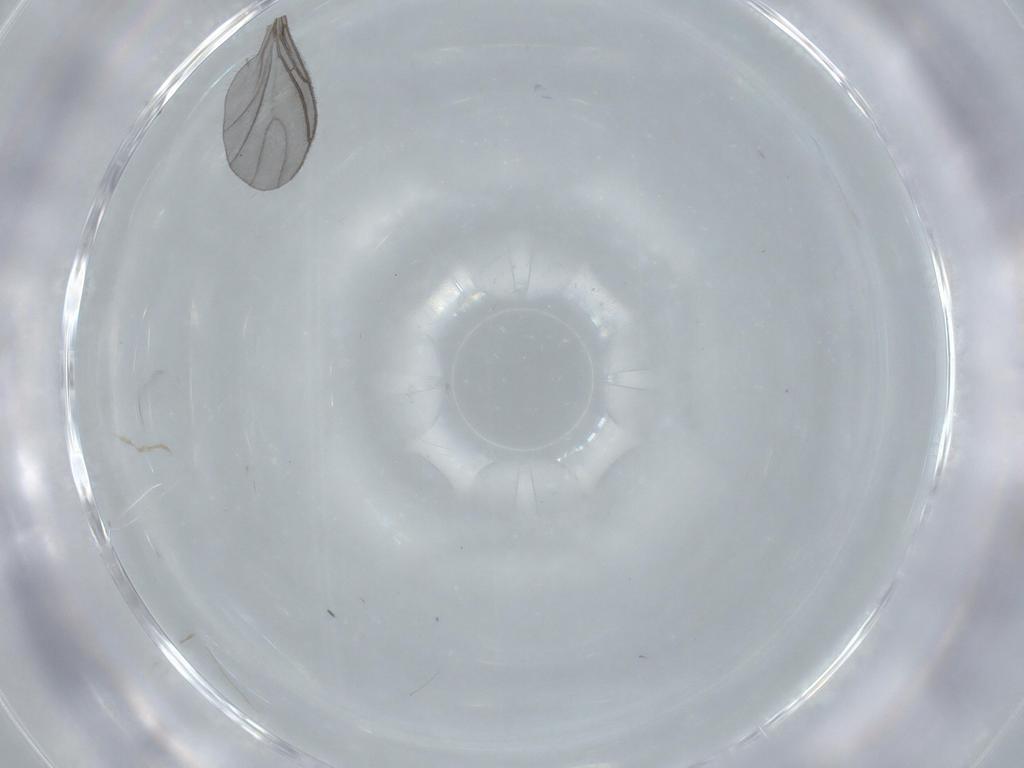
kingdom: Animalia
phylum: Arthropoda
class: Insecta
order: Diptera
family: Sciaridae
